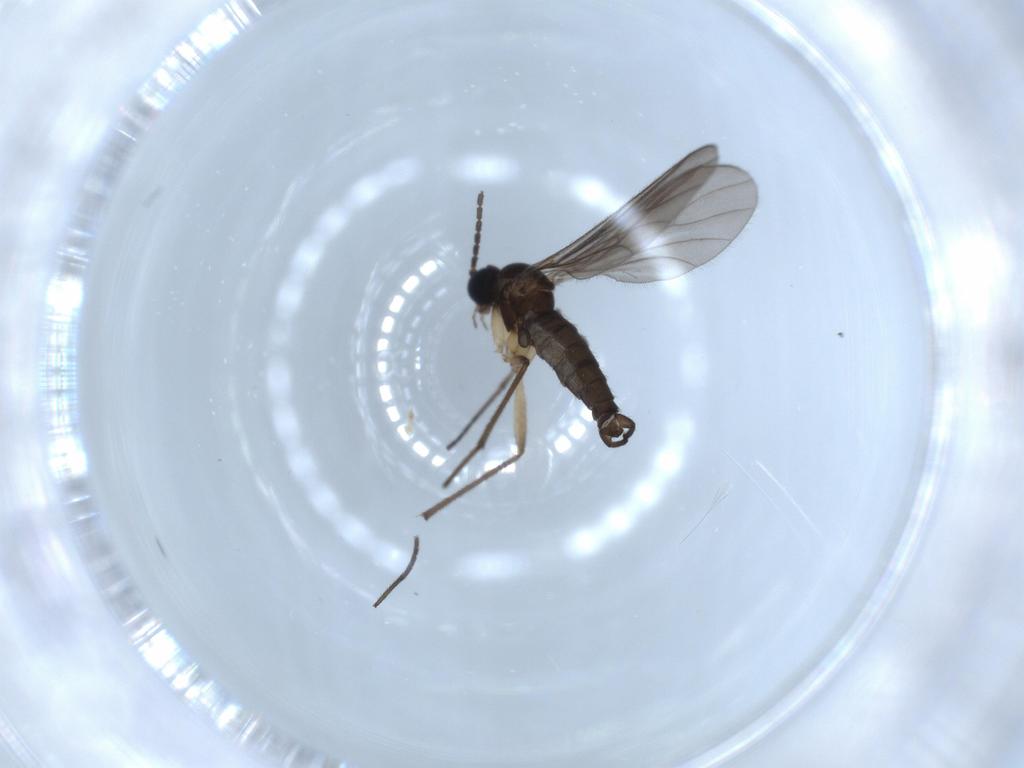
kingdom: Animalia
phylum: Arthropoda
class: Insecta
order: Diptera
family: Sciaridae
